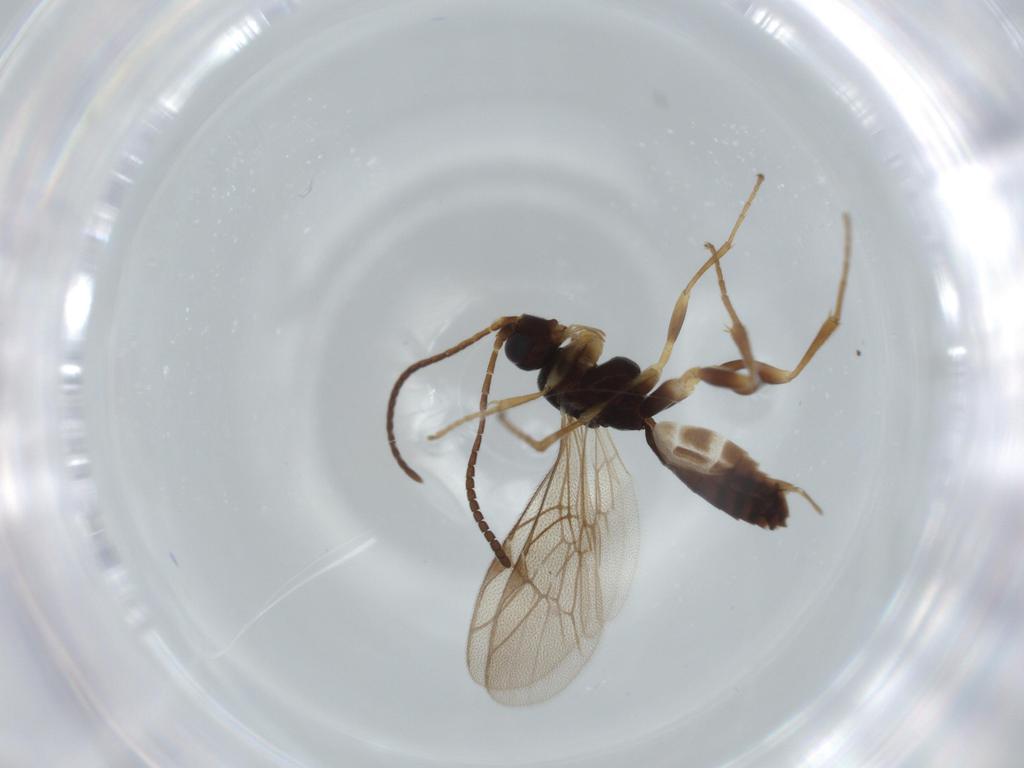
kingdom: Animalia
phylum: Arthropoda
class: Insecta
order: Hymenoptera
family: Ichneumonidae
